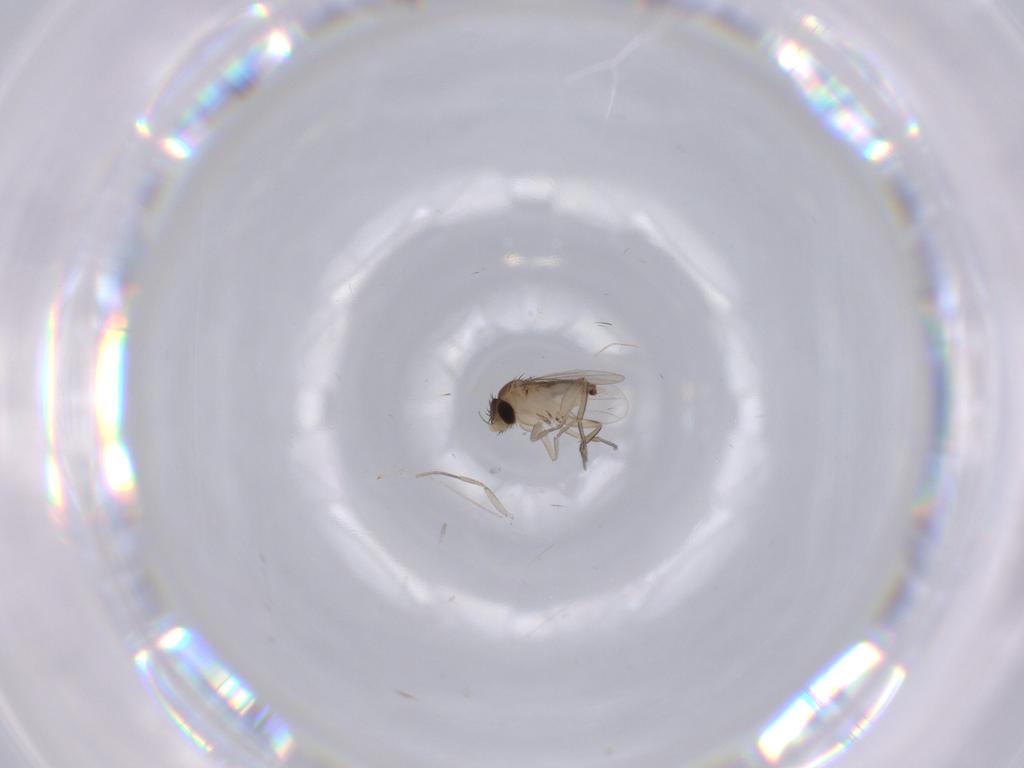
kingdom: Animalia
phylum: Arthropoda
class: Insecta
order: Diptera
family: Phoridae
